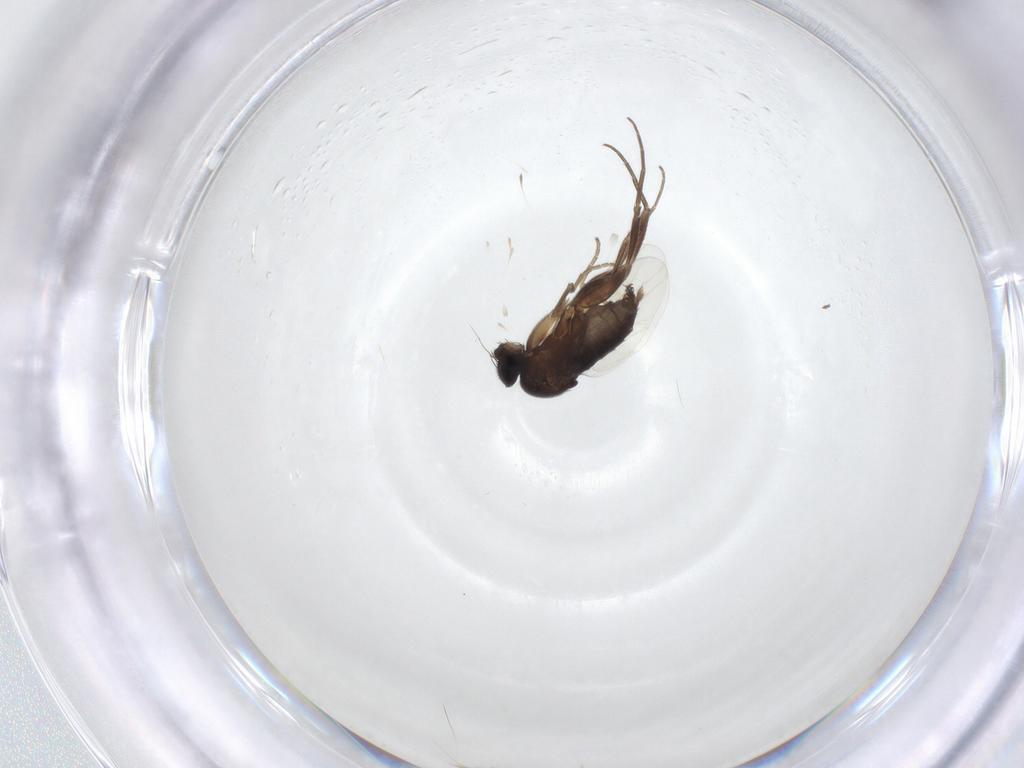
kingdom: Animalia
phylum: Arthropoda
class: Insecta
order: Diptera
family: Phoridae
